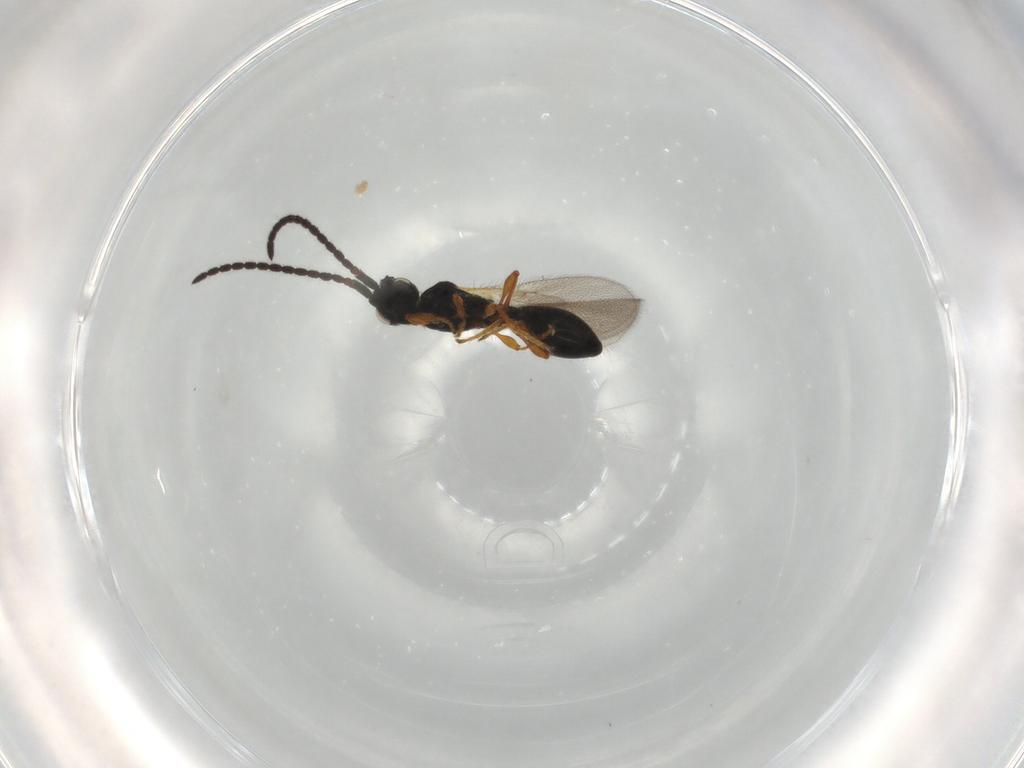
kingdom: Animalia
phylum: Arthropoda
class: Insecta
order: Hymenoptera
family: Diapriidae
